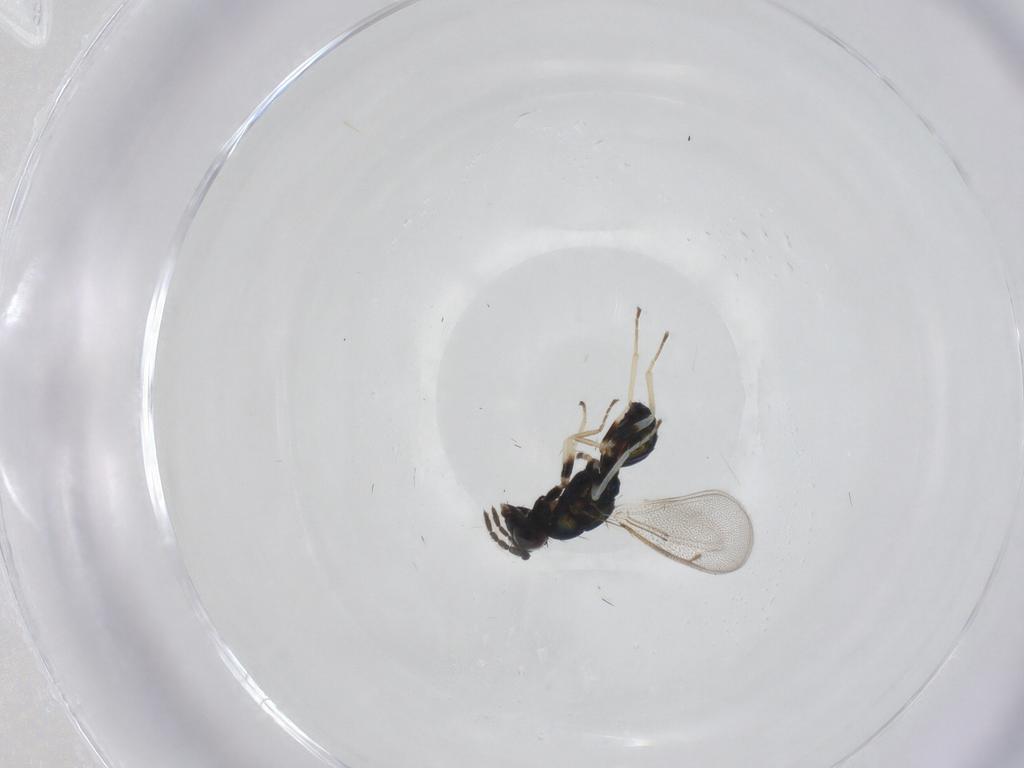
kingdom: Animalia
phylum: Arthropoda
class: Insecta
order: Hymenoptera
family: Eulophidae
